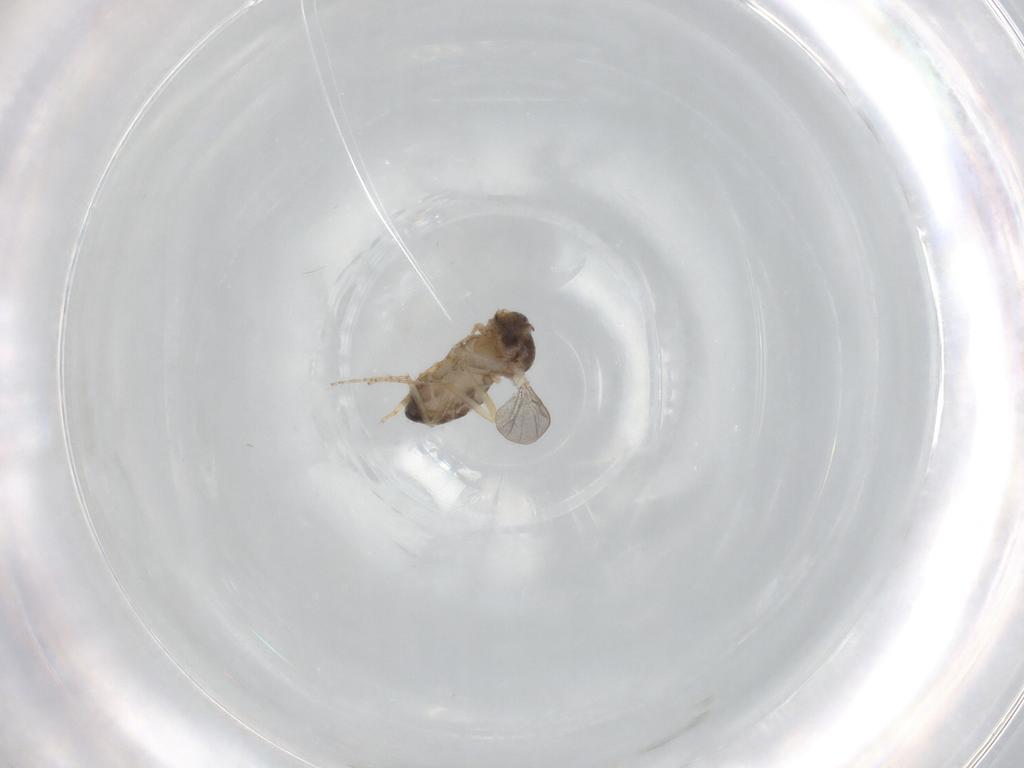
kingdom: Animalia
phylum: Arthropoda
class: Insecta
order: Diptera
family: Ceratopogonidae
